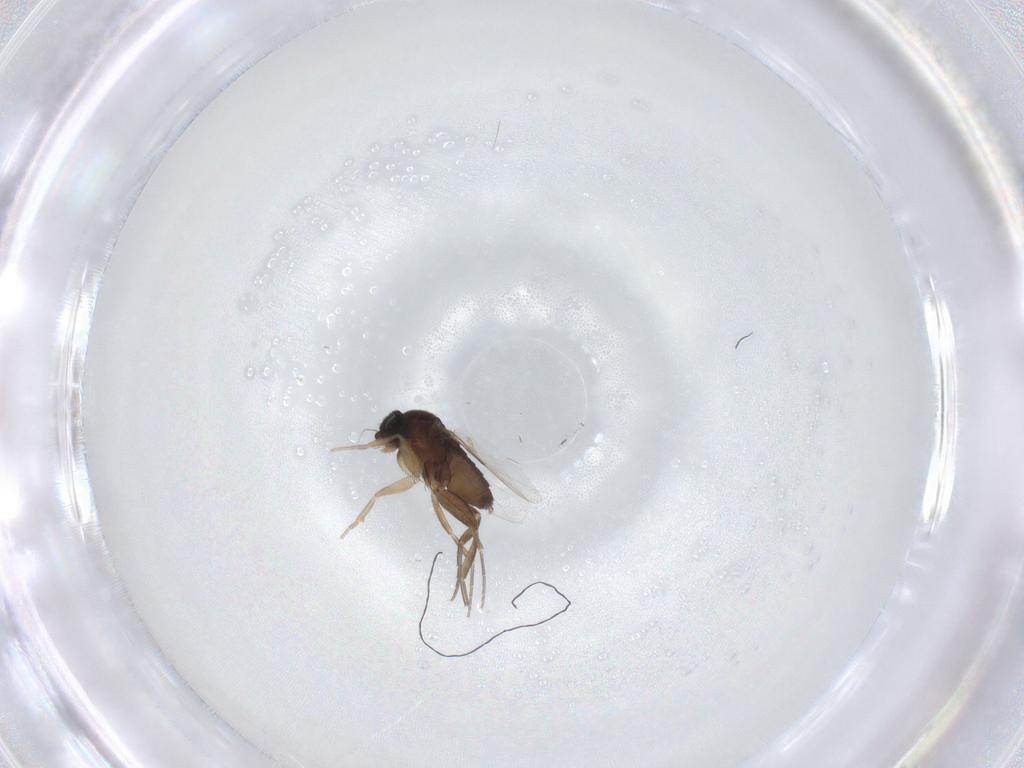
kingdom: Animalia
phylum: Arthropoda
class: Insecta
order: Diptera
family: Phoridae
